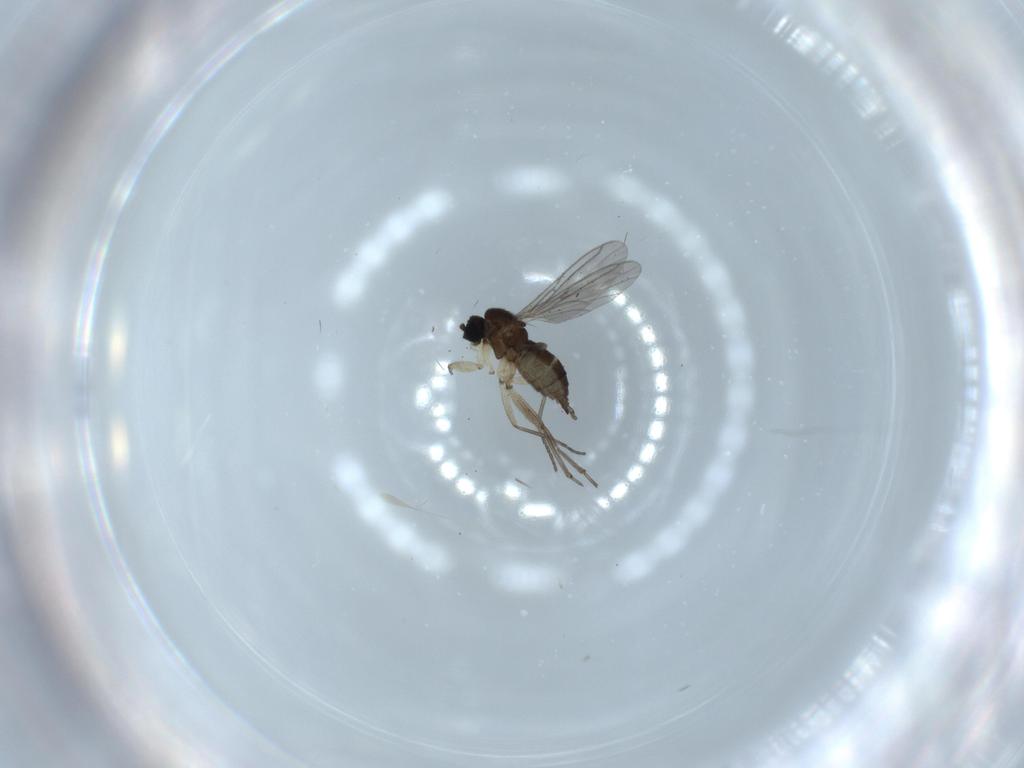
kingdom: Animalia
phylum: Arthropoda
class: Insecta
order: Diptera
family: Sciaridae
